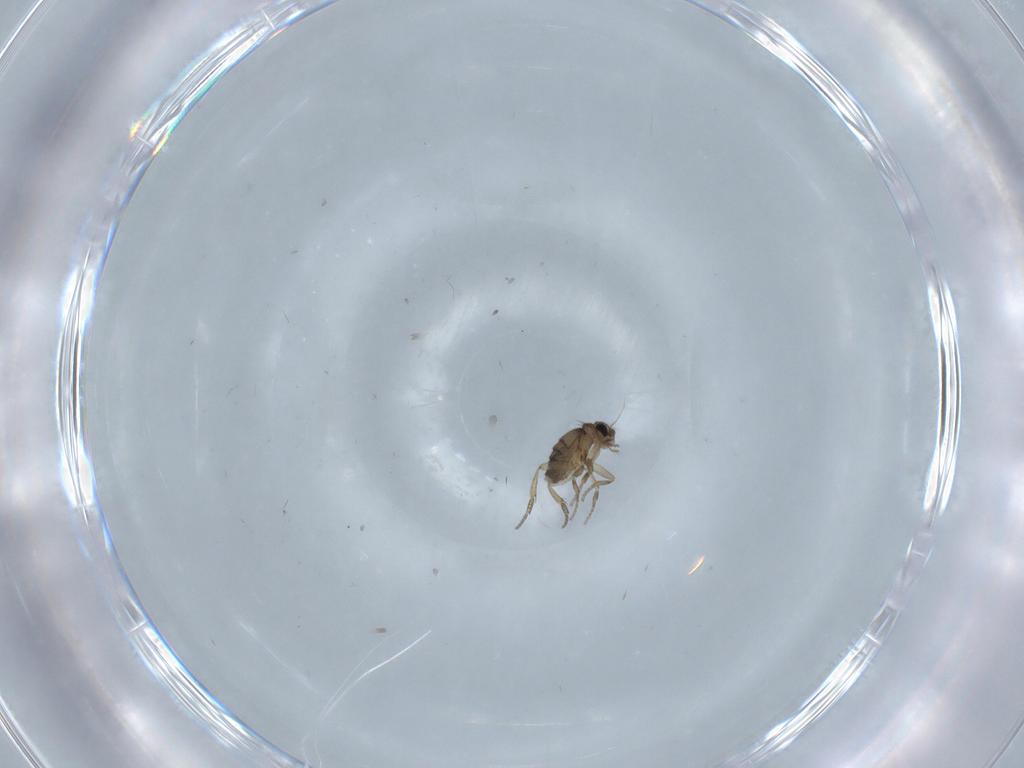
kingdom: Animalia
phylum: Arthropoda
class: Insecta
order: Diptera
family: Phoridae
